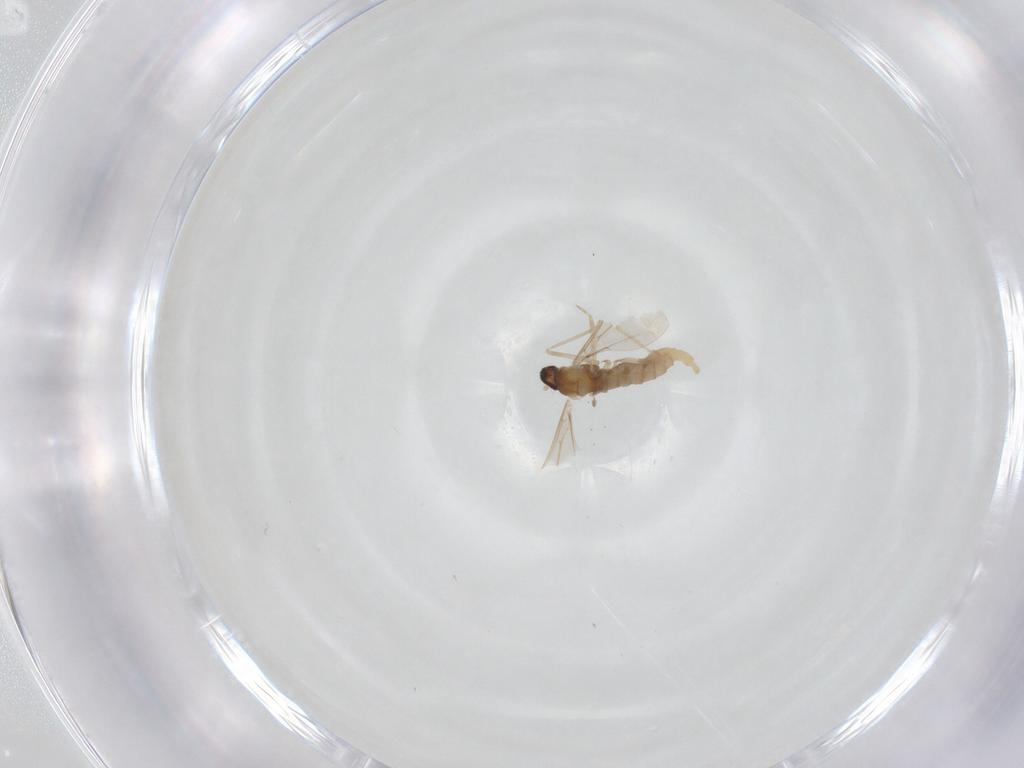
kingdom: Animalia
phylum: Arthropoda
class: Insecta
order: Diptera
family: Cecidomyiidae
